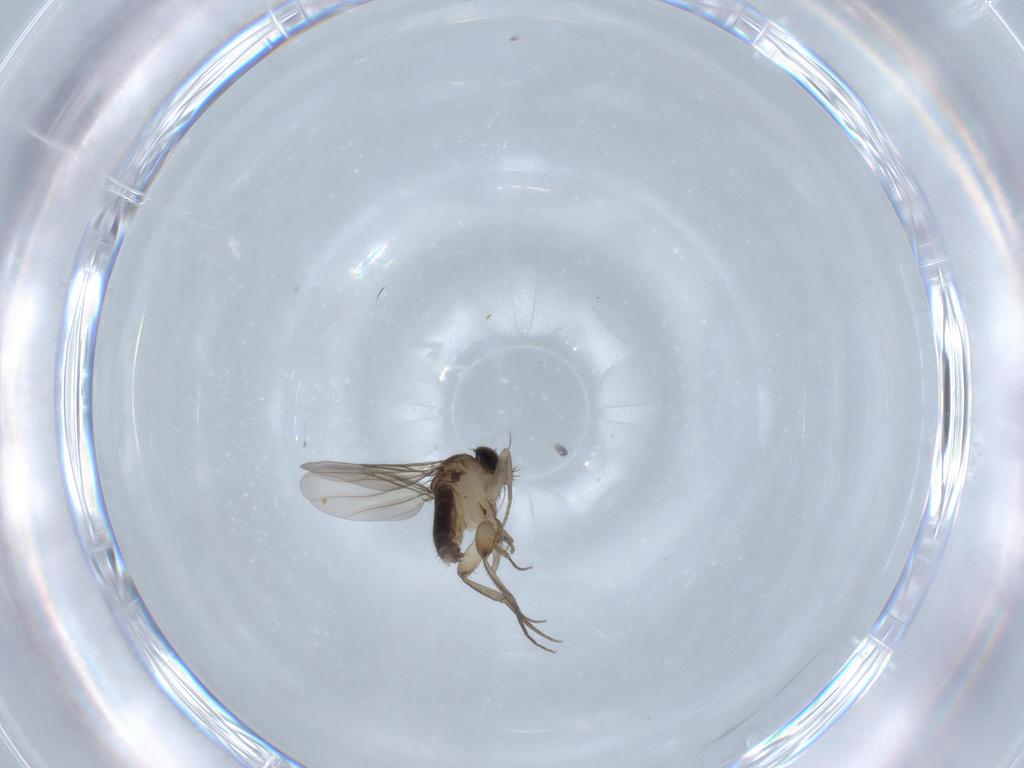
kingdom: Animalia
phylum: Arthropoda
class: Insecta
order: Diptera
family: Phoridae
